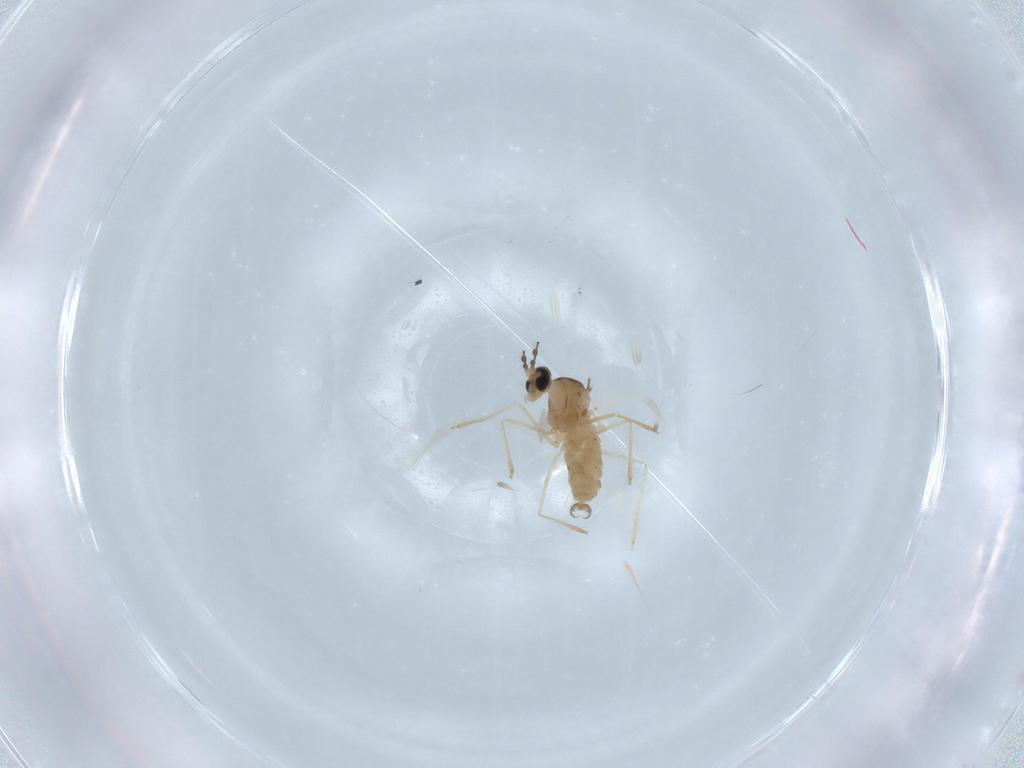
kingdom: Animalia
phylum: Arthropoda
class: Insecta
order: Diptera
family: Cecidomyiidae
